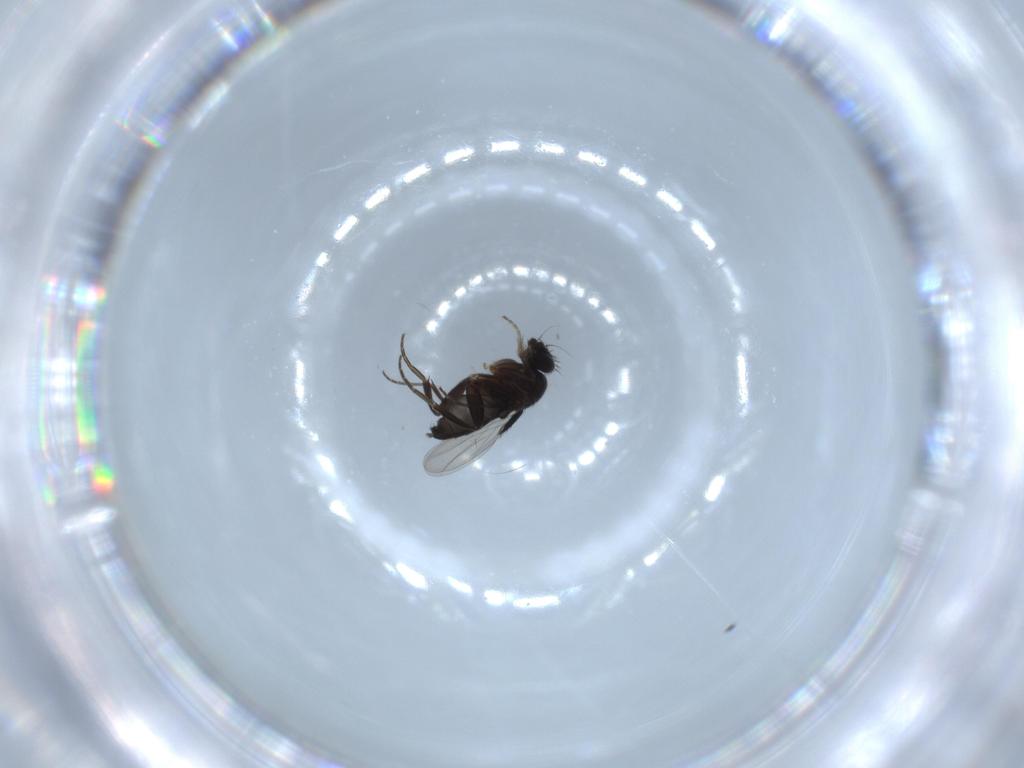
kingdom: Animalia
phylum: Arthropoda
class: Insecta
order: Diptera
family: Phoridae
